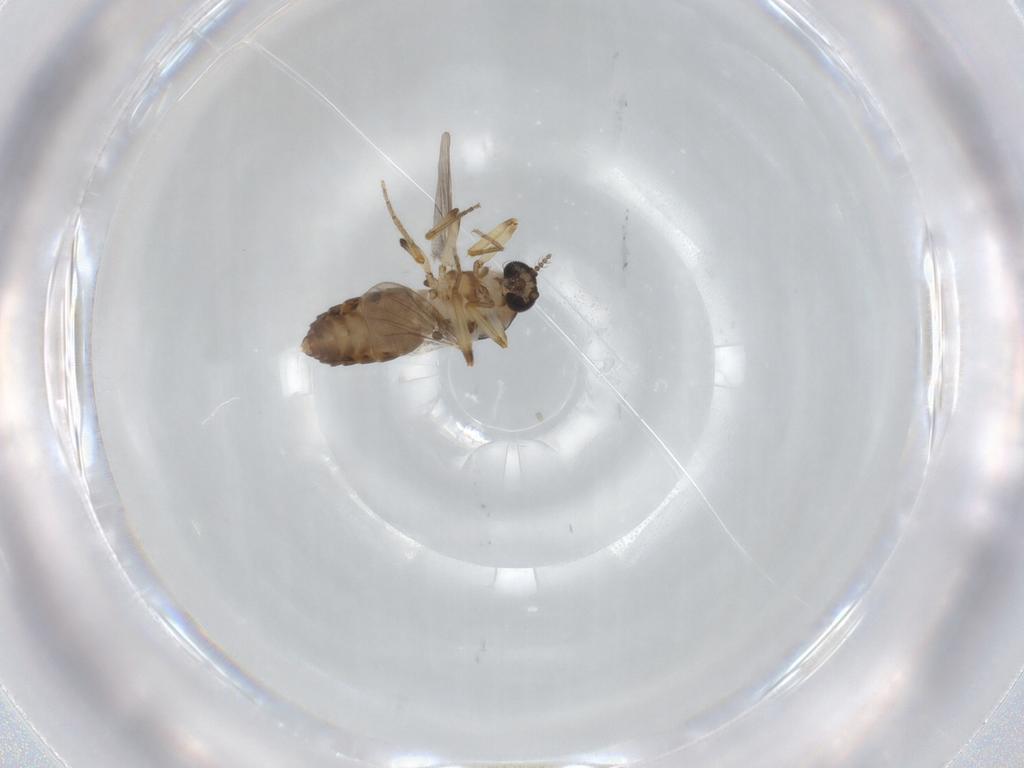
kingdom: Animalia
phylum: Arthropoda
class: Insecta
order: Diptera
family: Ceratopogonidae
